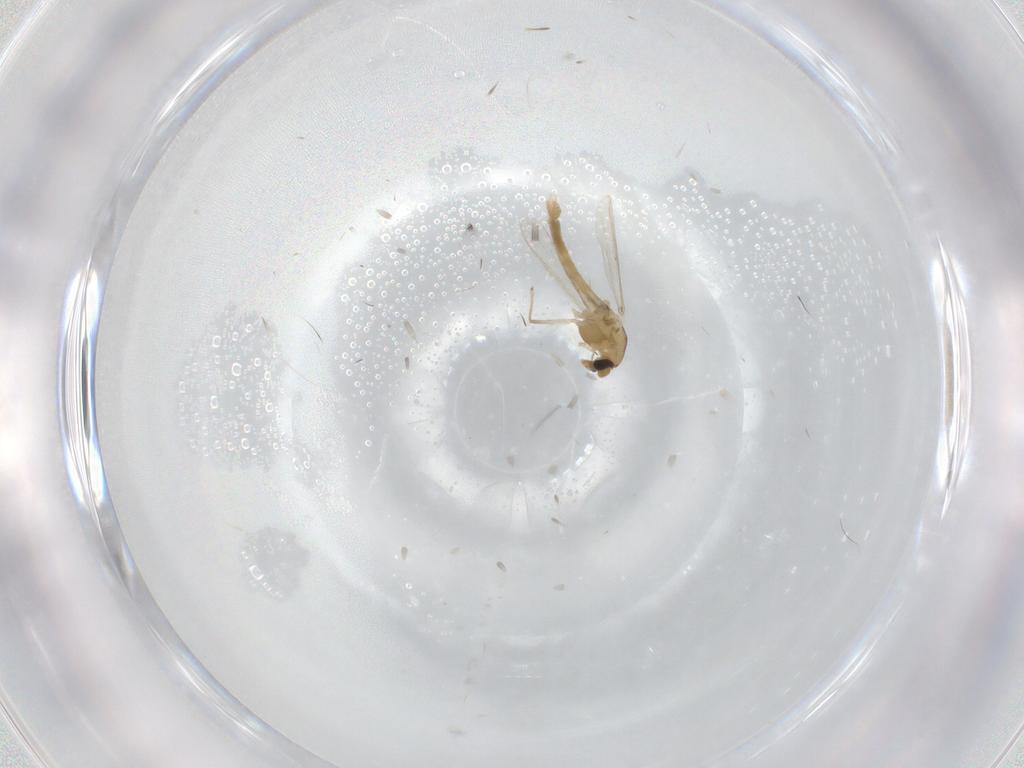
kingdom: Animalia
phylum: Arthropoda
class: Insecta
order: Diptera
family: Chironomidae
